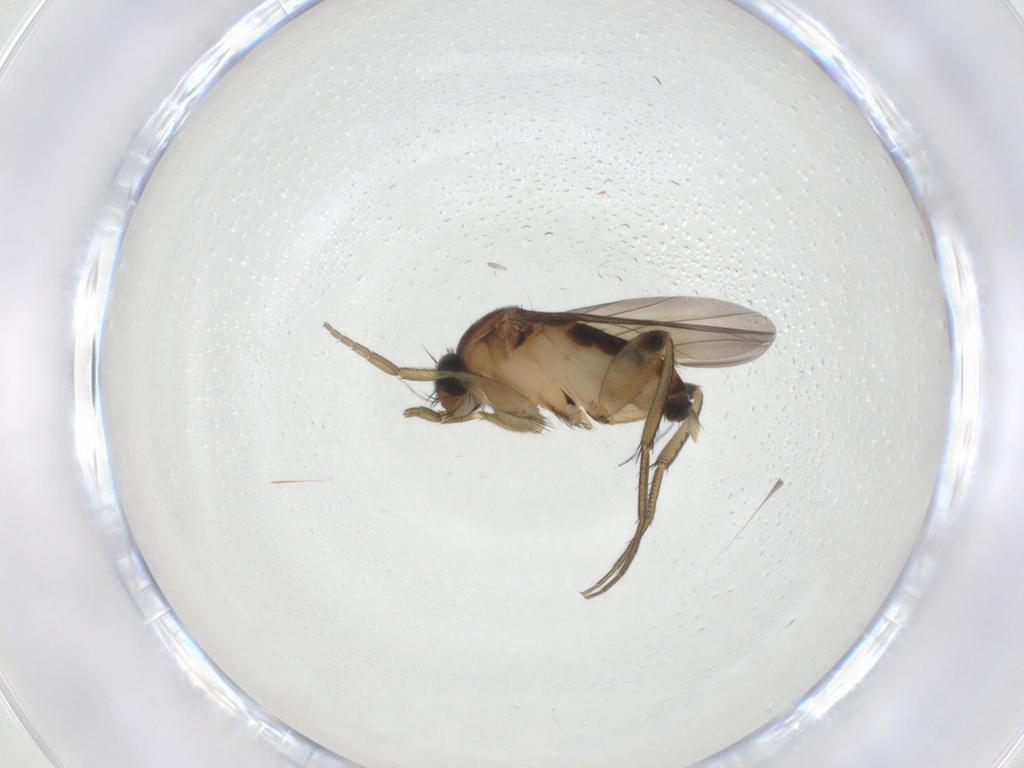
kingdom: Animalia
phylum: Arthropoda
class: Insecta
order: Diptera
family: Phoridae
